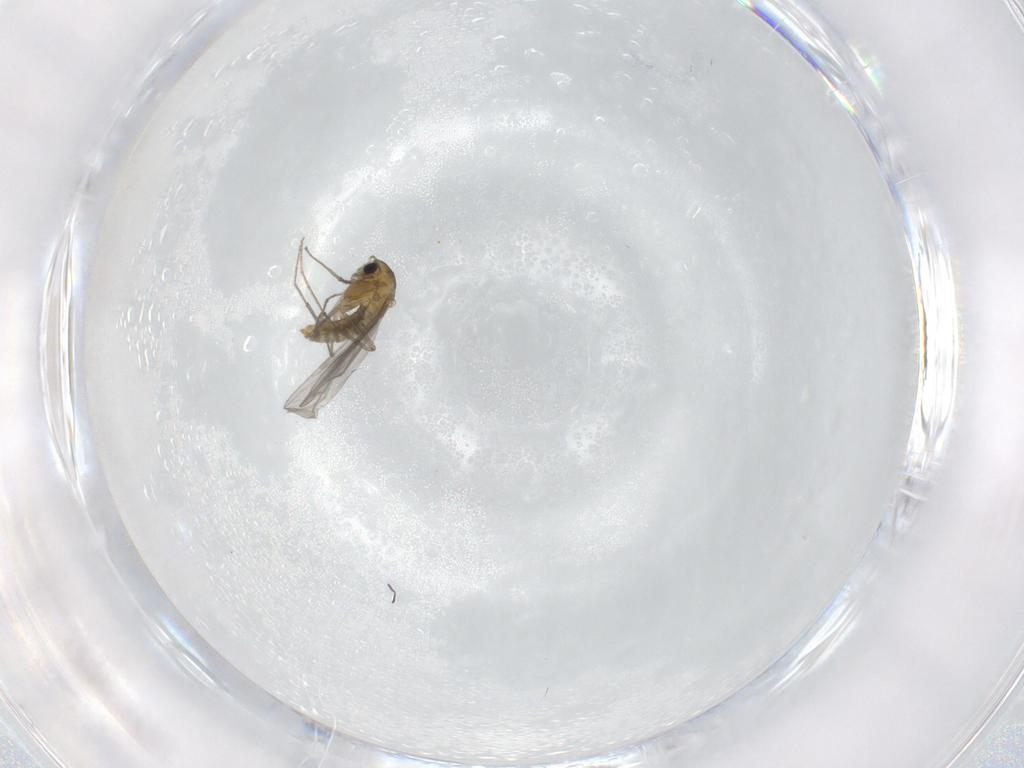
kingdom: Animalia
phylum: Arthropoda
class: Insecta
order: Diptera
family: Chironomidae
